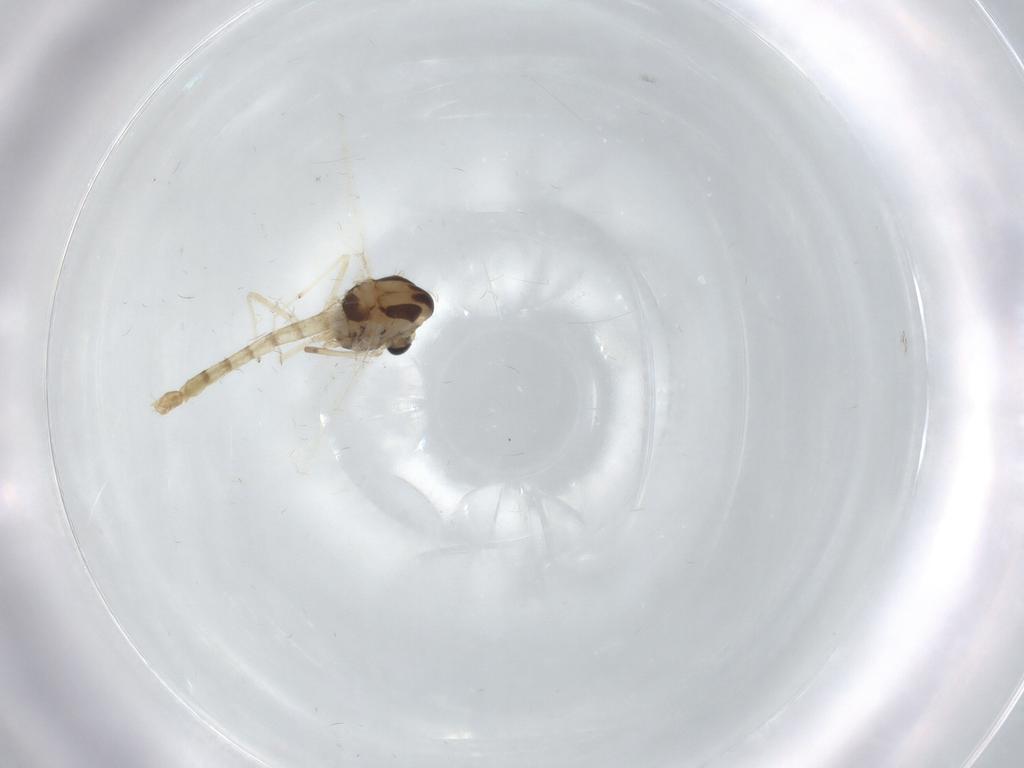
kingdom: Animalia
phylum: Arthropoda
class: Insecta
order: Diptera
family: Chironomidae
